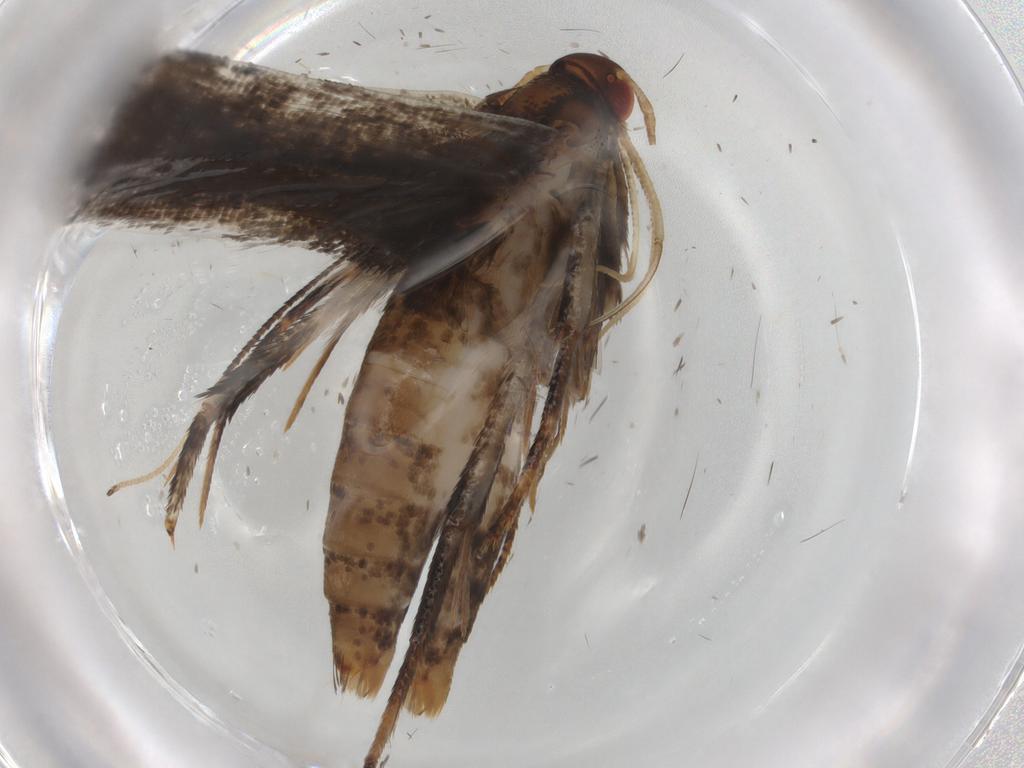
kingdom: Animalia
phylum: Arthropoda
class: Insecta
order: Lepidoptera
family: Gelechiidae
